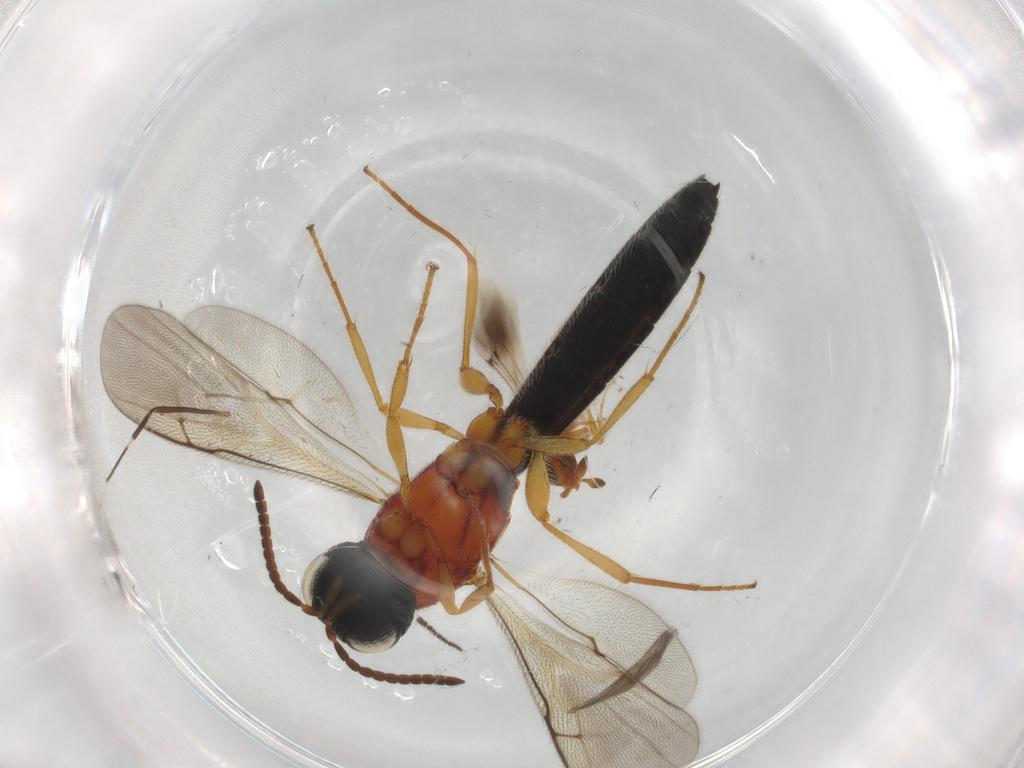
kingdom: Animalia
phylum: Arthropoda
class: Insecta
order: Hymenoptera
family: Scelionidae
